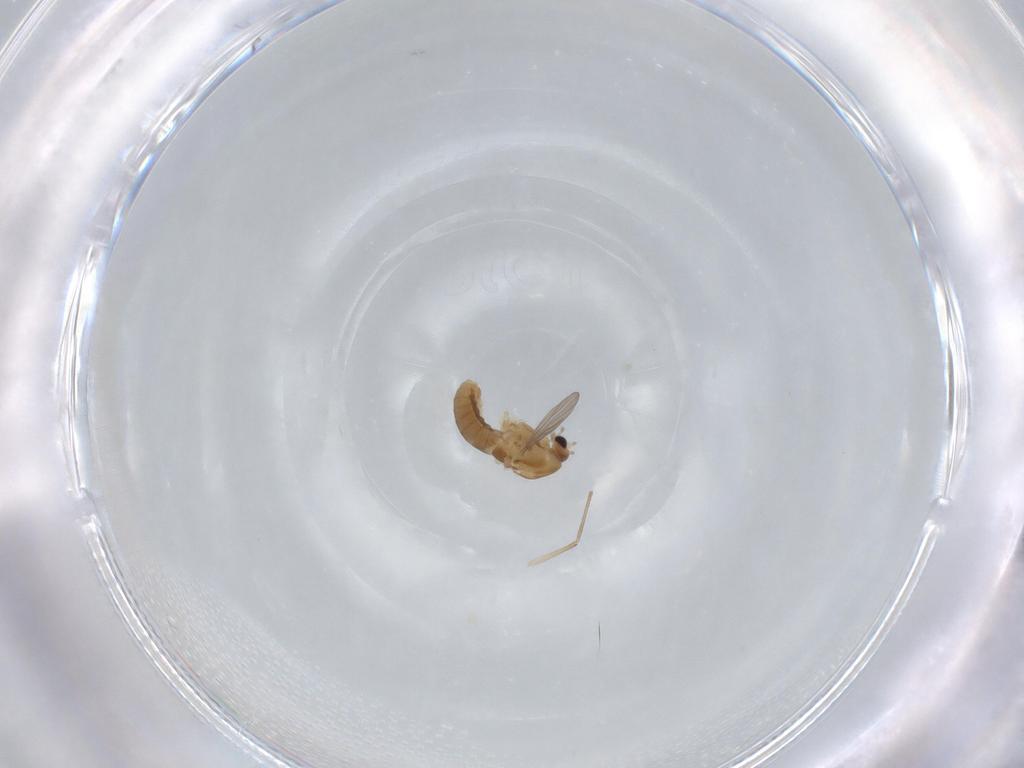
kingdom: Animalia
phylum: Arthropoda
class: Insecta
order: Diptera
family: Chironomidae
